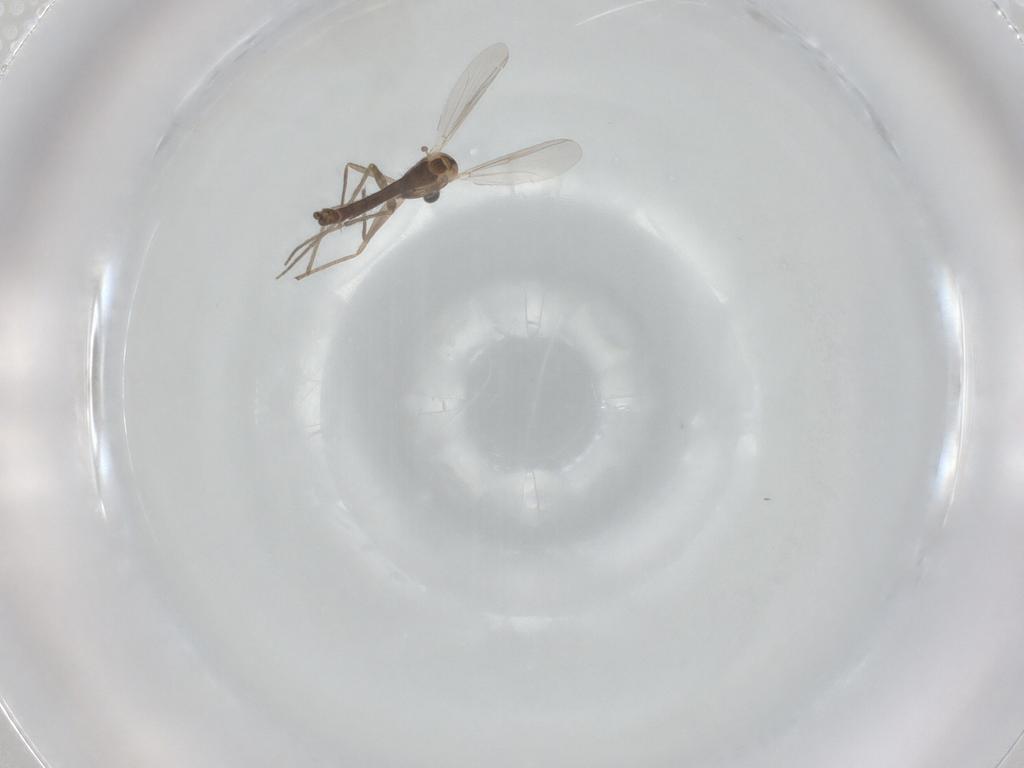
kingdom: Animalia
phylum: Arthropoda
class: Insecta
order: Diptera
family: Chironomidae
